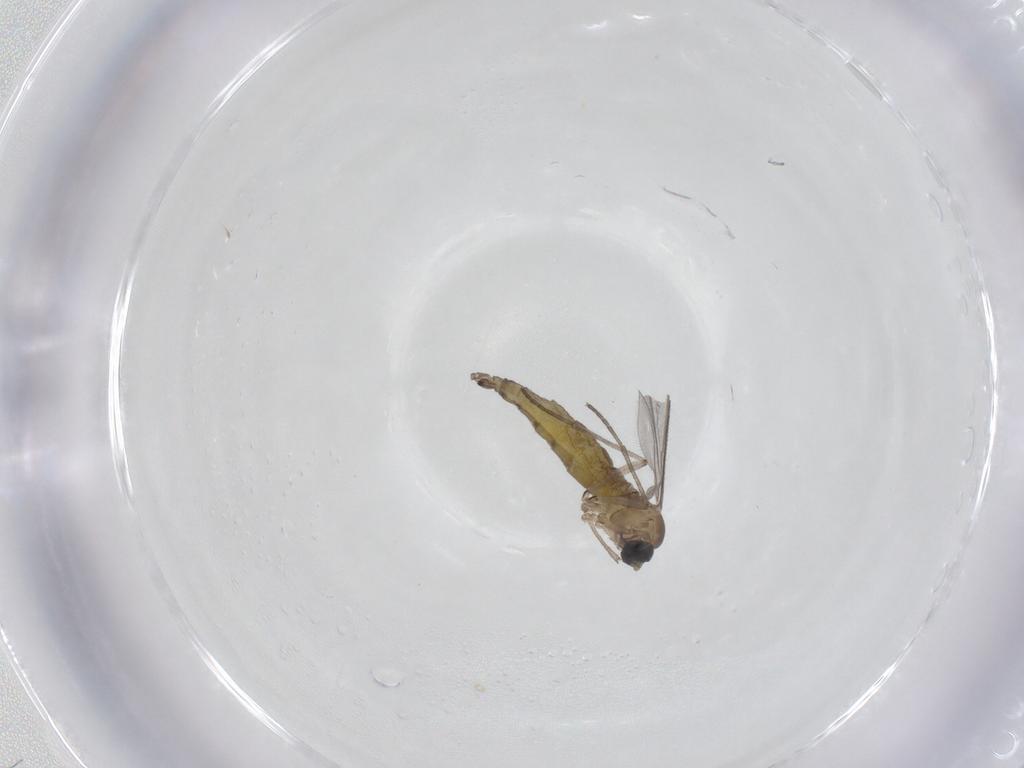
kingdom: Animalia
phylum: Arthropoda
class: Insecta
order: Diptera
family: Sciaridae
